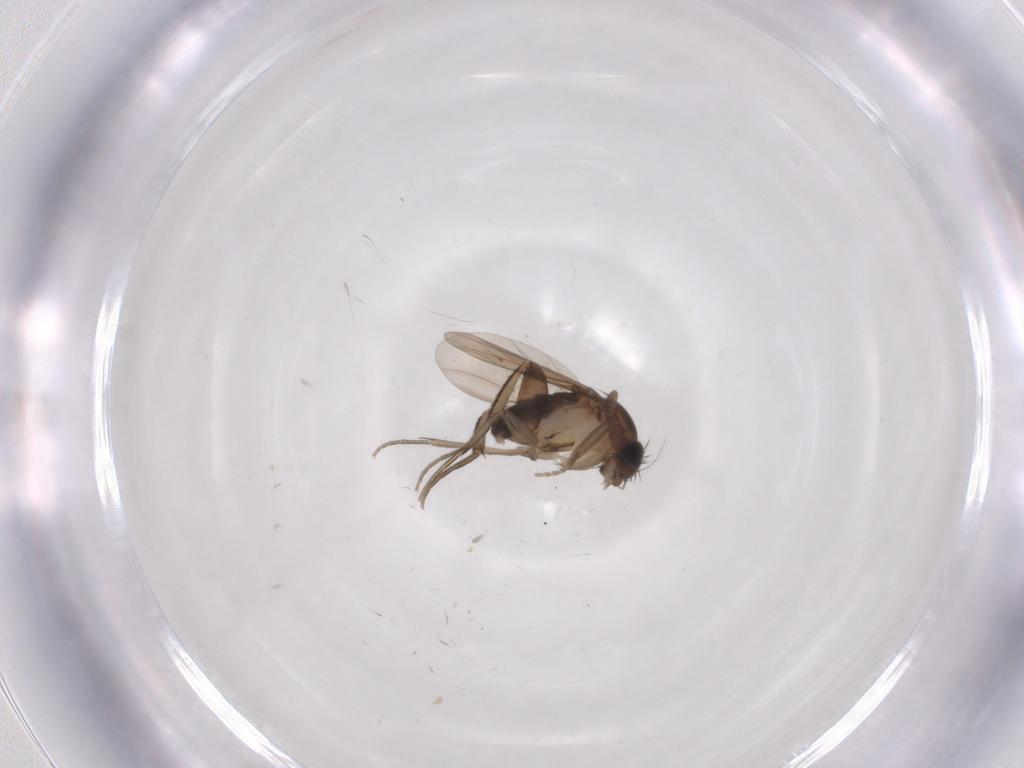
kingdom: Animalia
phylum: Arthropoda
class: Insecta
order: Diptera
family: Phoridae
